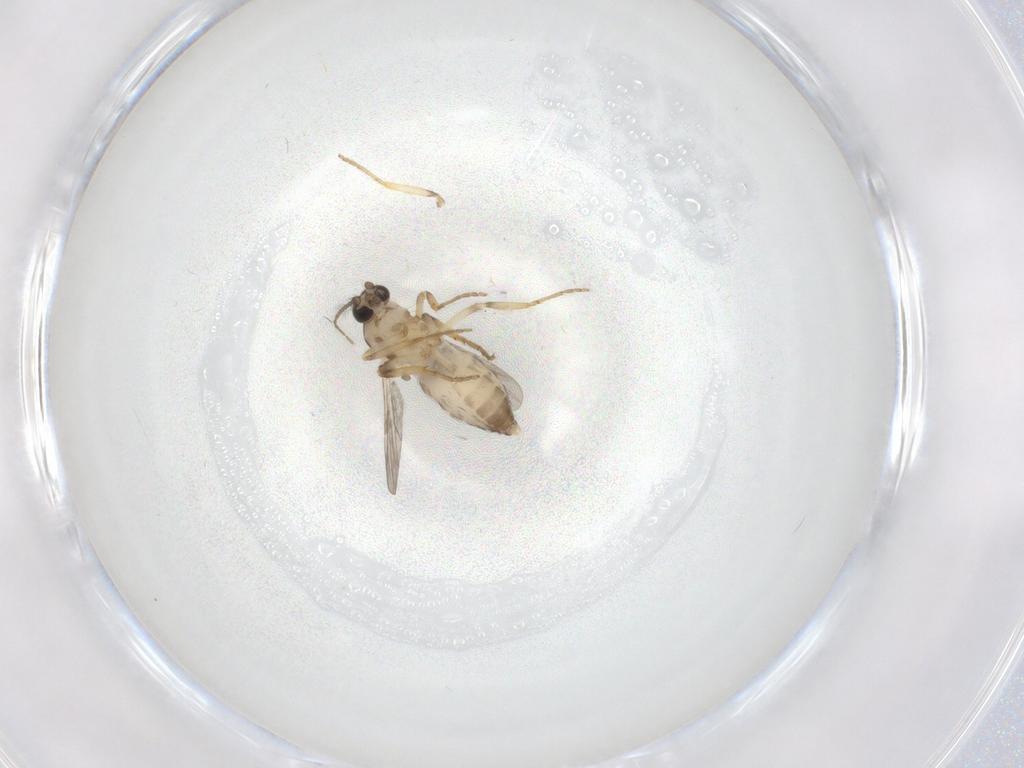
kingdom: Animalia
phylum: Arthropoda
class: Insecta
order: Diptera
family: Ceratopogonidae
